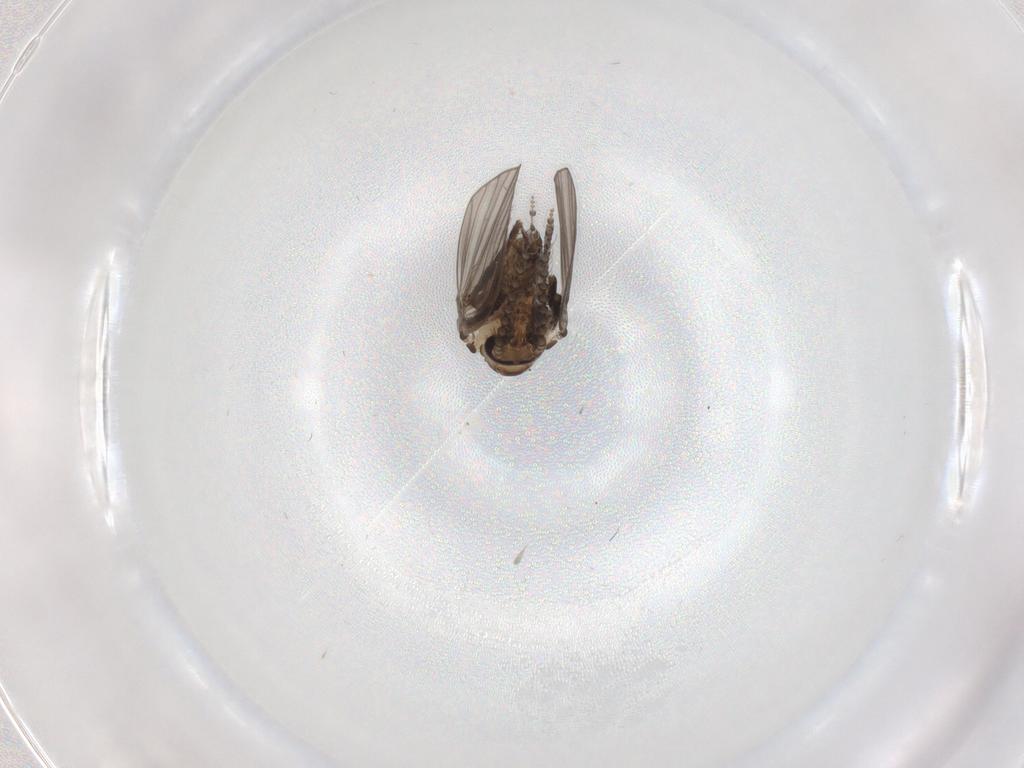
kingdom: Animalia
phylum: Arthropoda
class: Insecta
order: Diptera
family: Psychodidae
